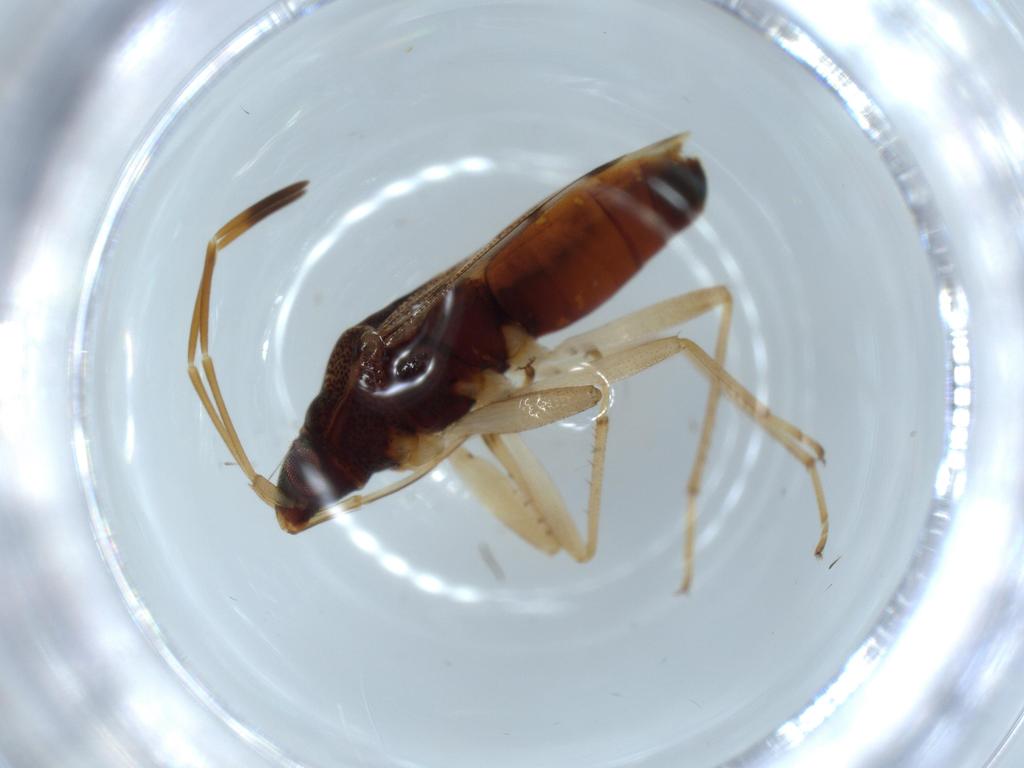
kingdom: Animalia
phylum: Arthropoda
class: Insecta
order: Hemiptera
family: Rhyparochromidae
